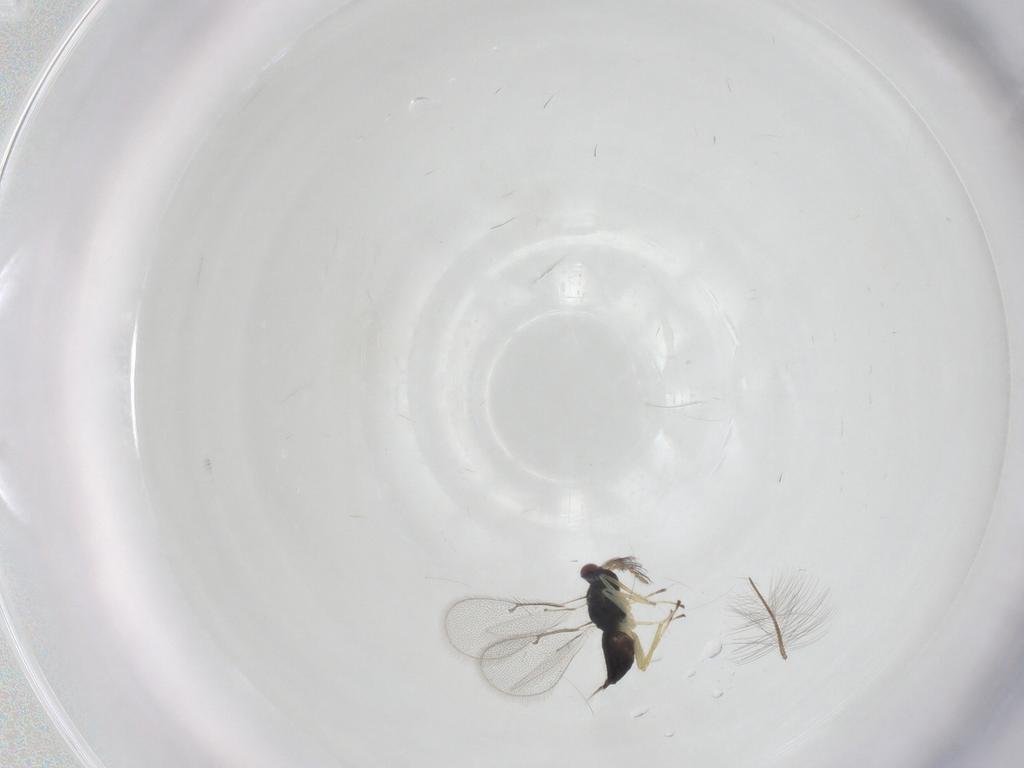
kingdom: Animalia
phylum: Arthropoda
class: Insecta
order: Hymenoptera
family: Eulophidae
